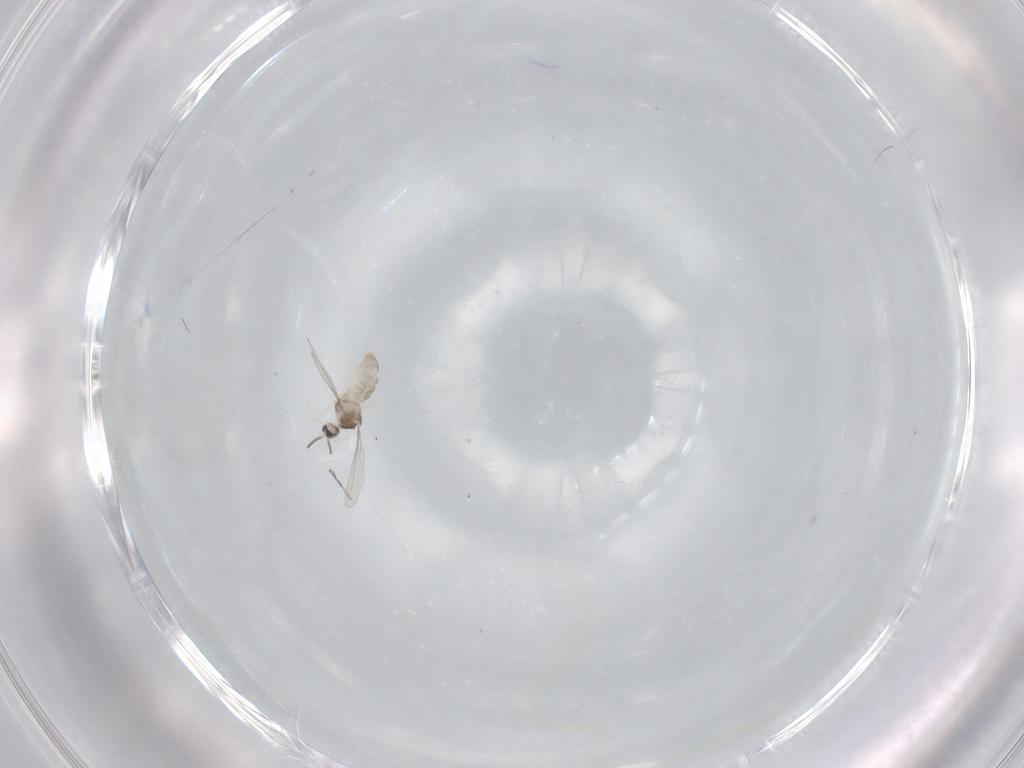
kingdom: Animalia
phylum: Arthropoda
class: Insecta
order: Diptera
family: Cecidomyiidae
